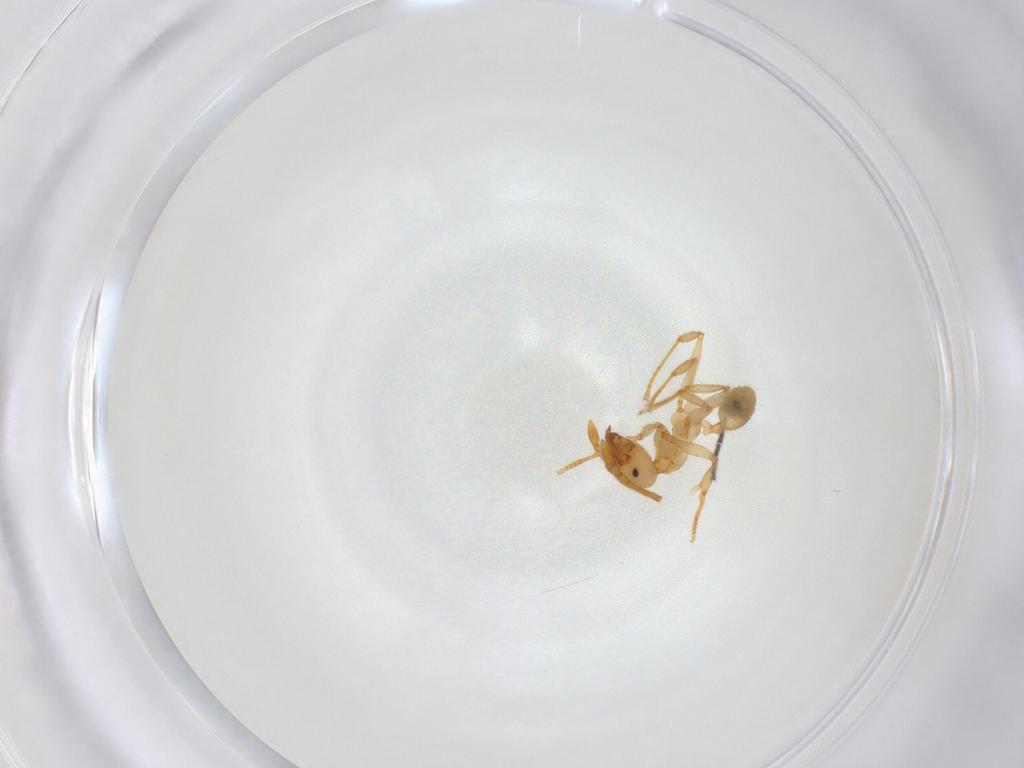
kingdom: Animalia
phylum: Arthropoda
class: Insecta
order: Hymenoptera
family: Formicidae
